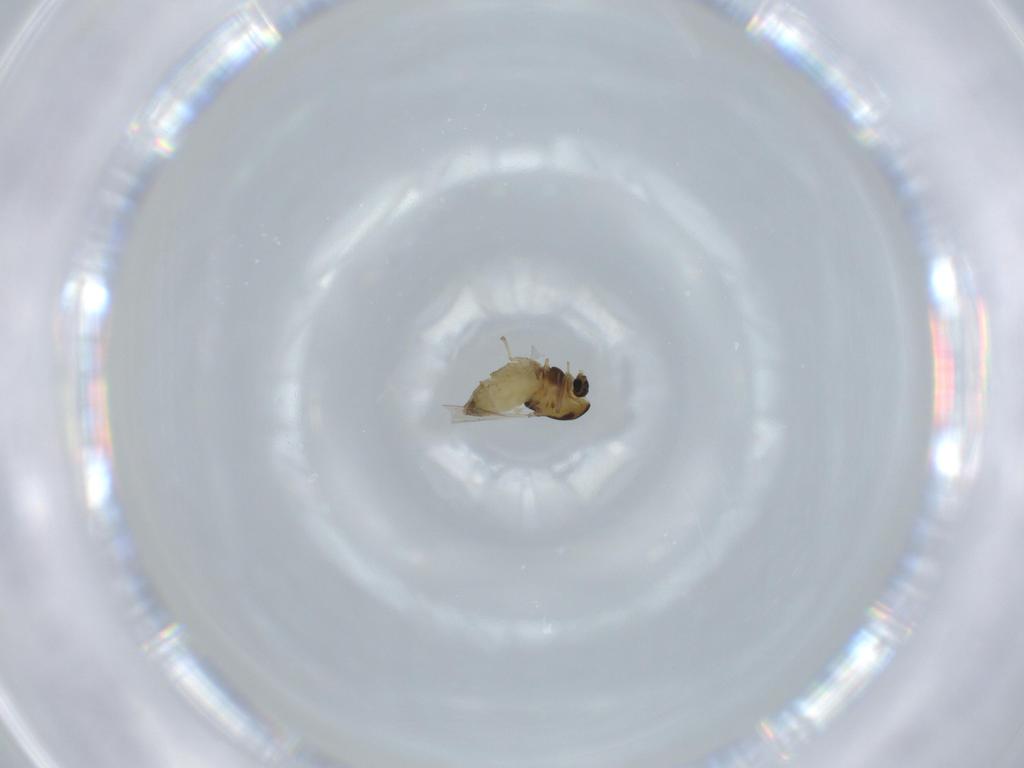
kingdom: Animalia
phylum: Arthropoda
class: Insecta
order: Diptera
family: Chironomidae
